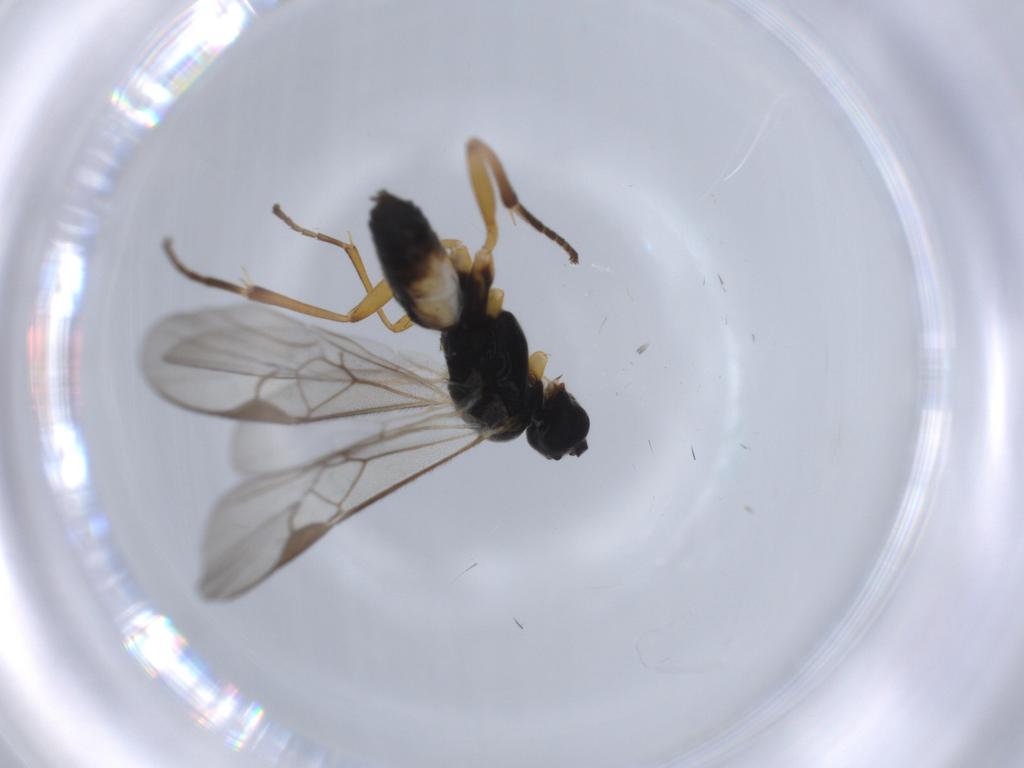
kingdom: Animalia
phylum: Arthropoda
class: Insecta
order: Hymenoptera
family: Braconidae
